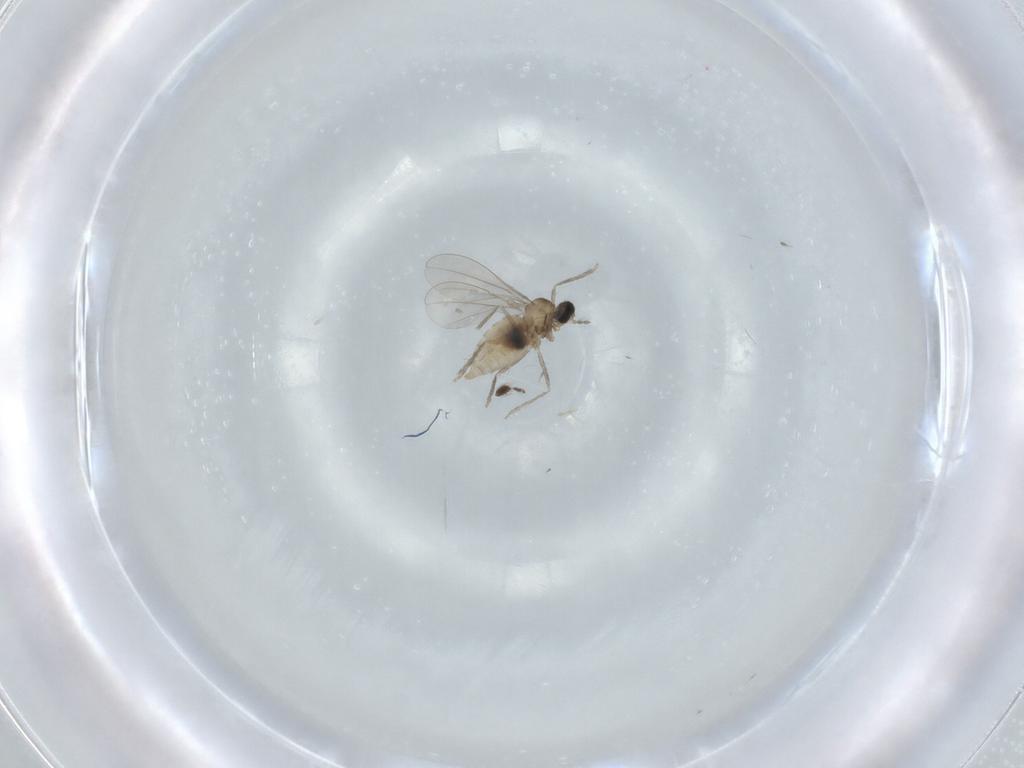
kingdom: Animalia
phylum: Arthropoda
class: Insecta
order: Diptera
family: Ceratopogonidae
